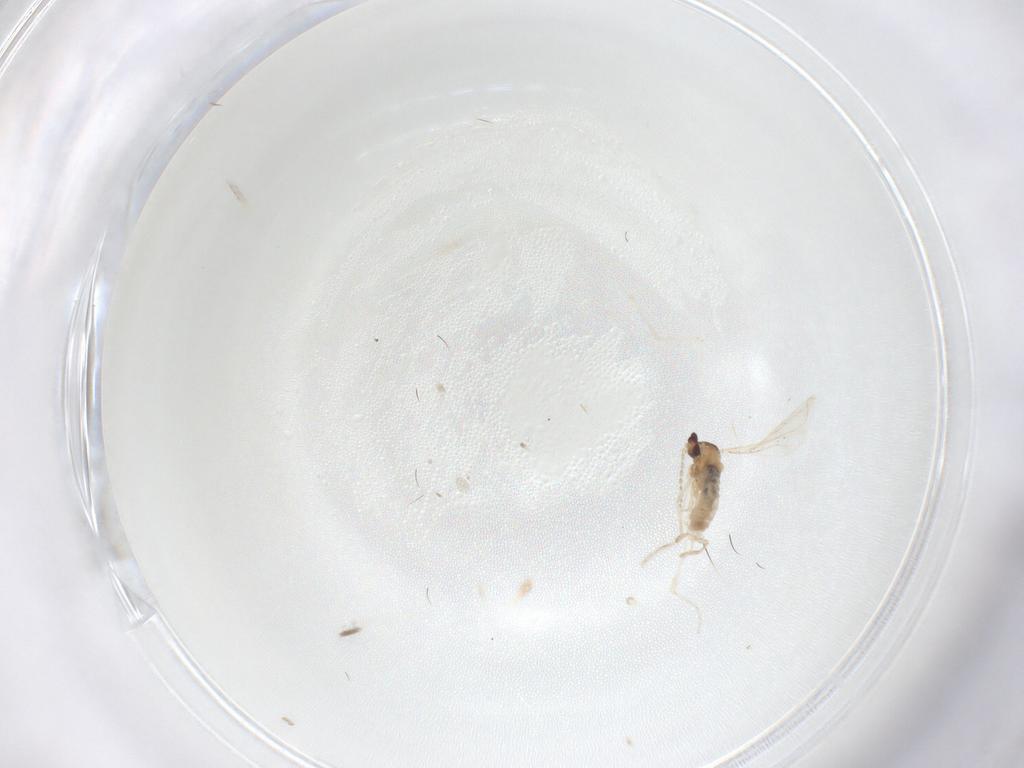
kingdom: Animalia
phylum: Arthropoda
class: Insecta
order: Diptera
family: Cecidomyiidae
